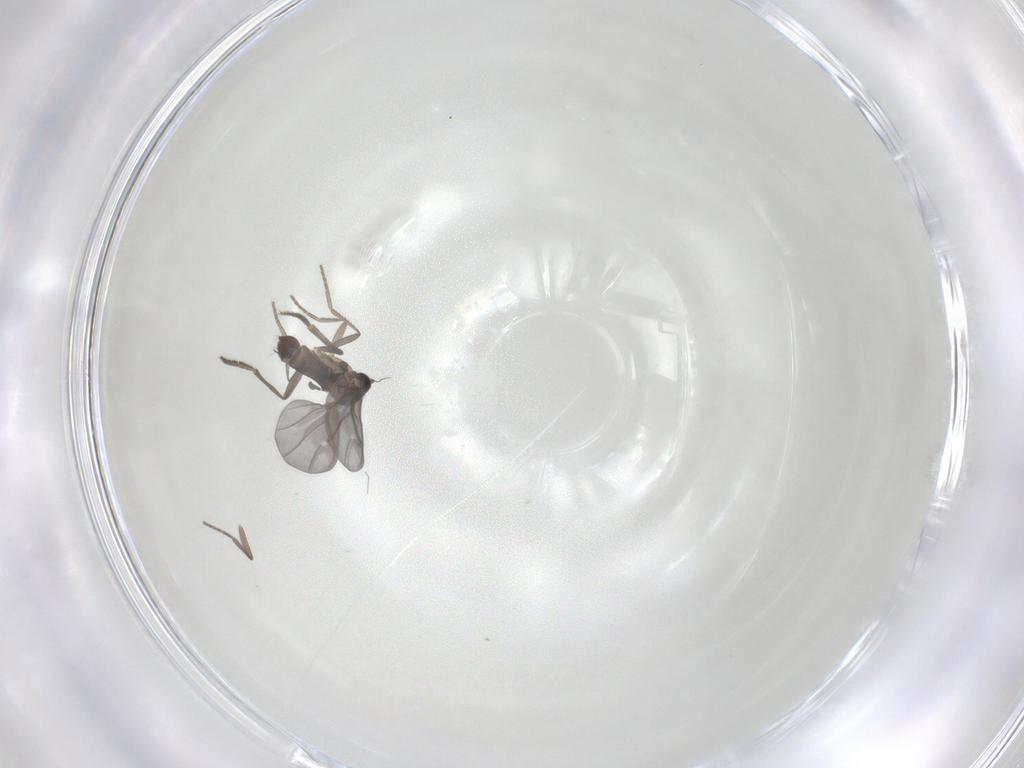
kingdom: Animalia
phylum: Arthropoda
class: Insecta
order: Diptera
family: Phoridae
